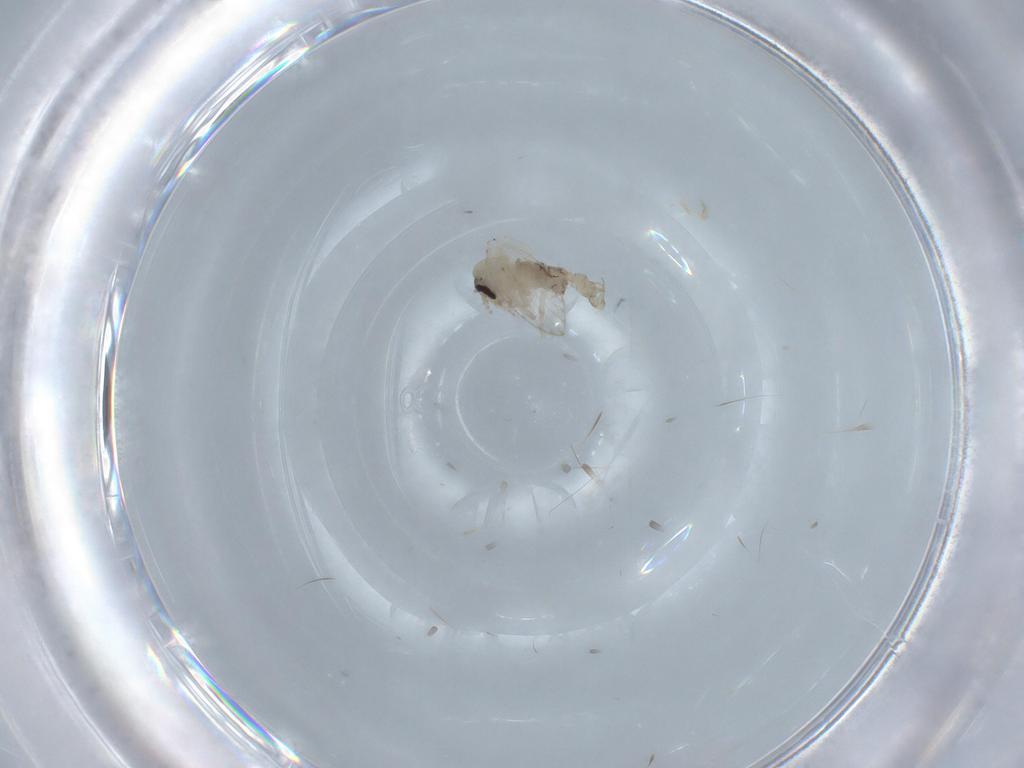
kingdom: Animalia
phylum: Arthropoda
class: Insecta
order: Diptera
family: Psychodidae
